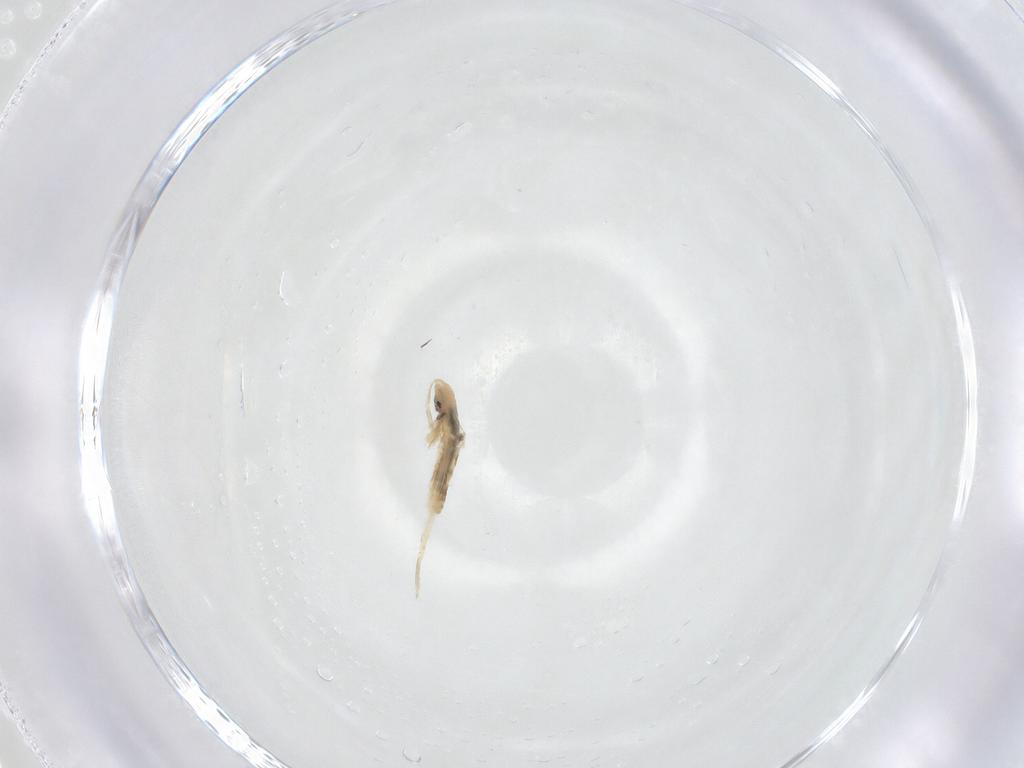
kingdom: Animalia
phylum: Arthropoda
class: Collembola
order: Entomobryomorpha
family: Entomobryidae
